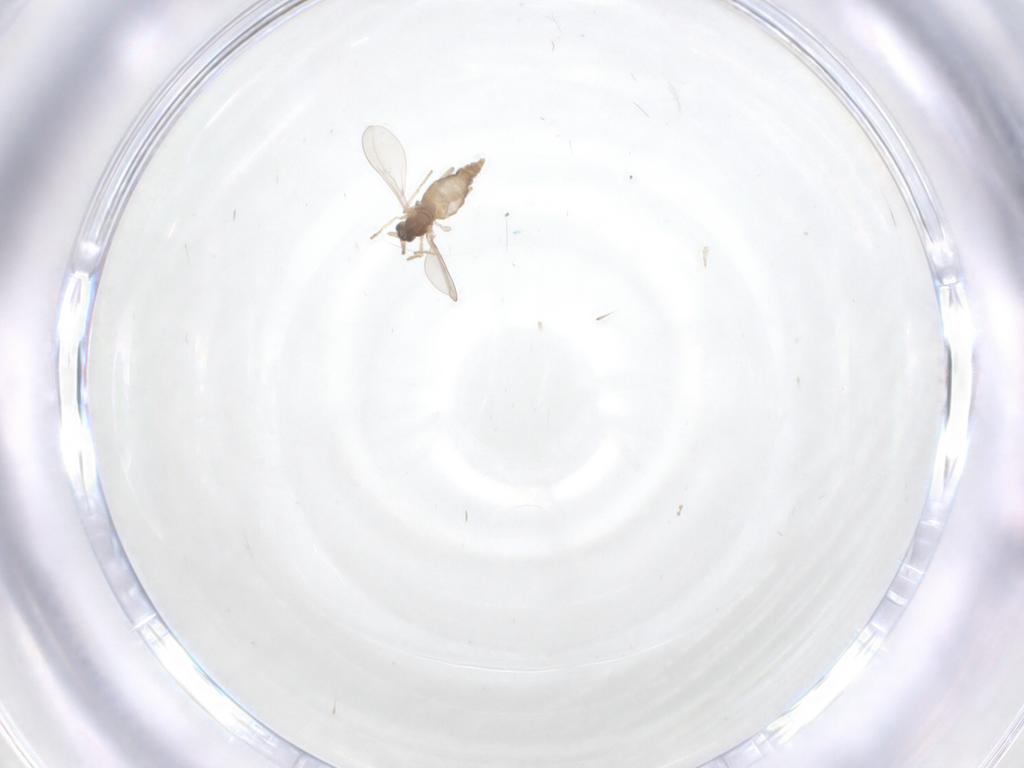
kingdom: Animalia
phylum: Arthropoda
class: Insecta
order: Diptera
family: Cecidomyiidae
